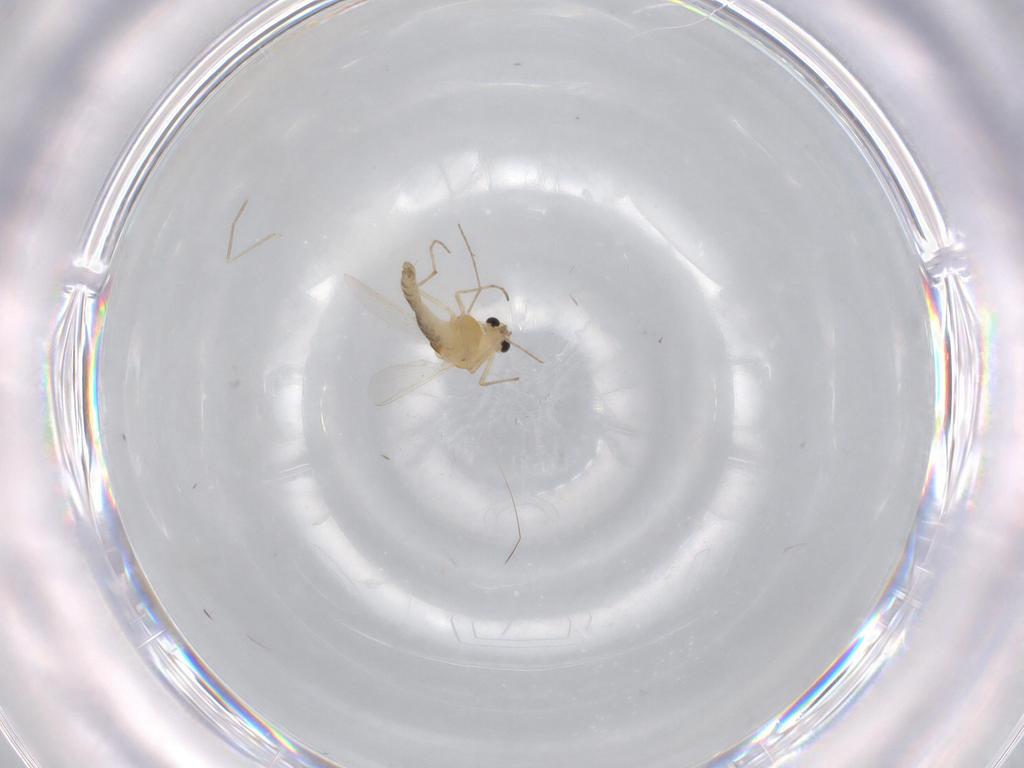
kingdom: Animalia
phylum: Arthropoda
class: Insecta
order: Diptera
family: Chironomidae
